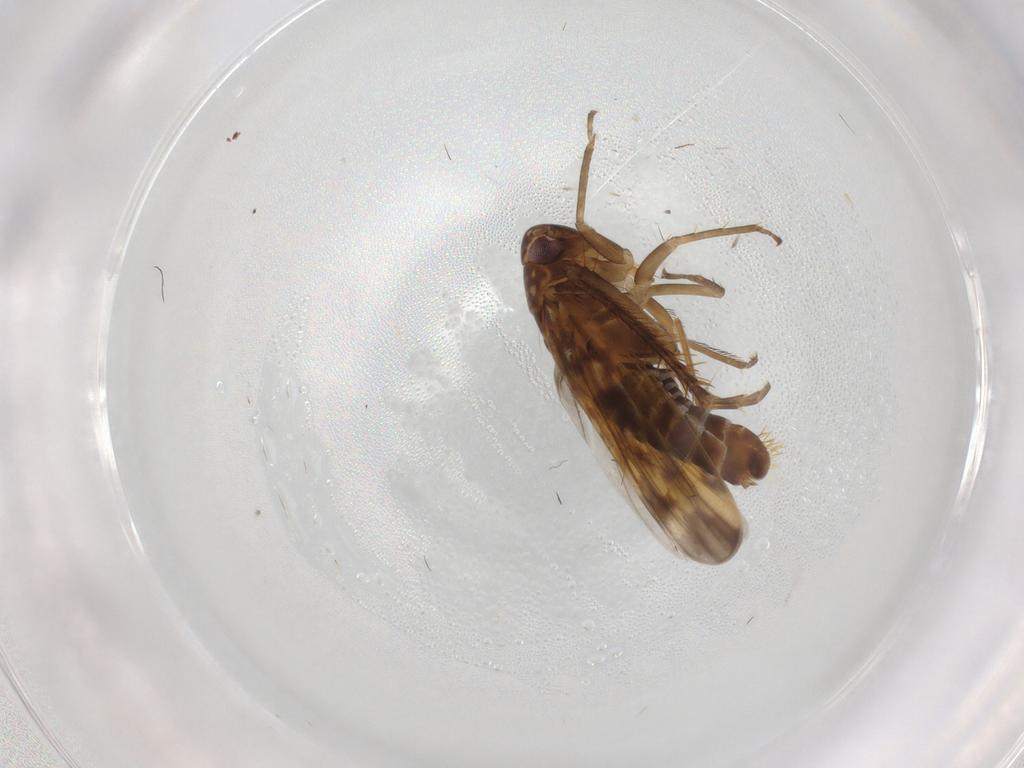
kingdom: Animalia
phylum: Arthropoda
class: Insecta
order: Hemiptera
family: Cicadellidae
